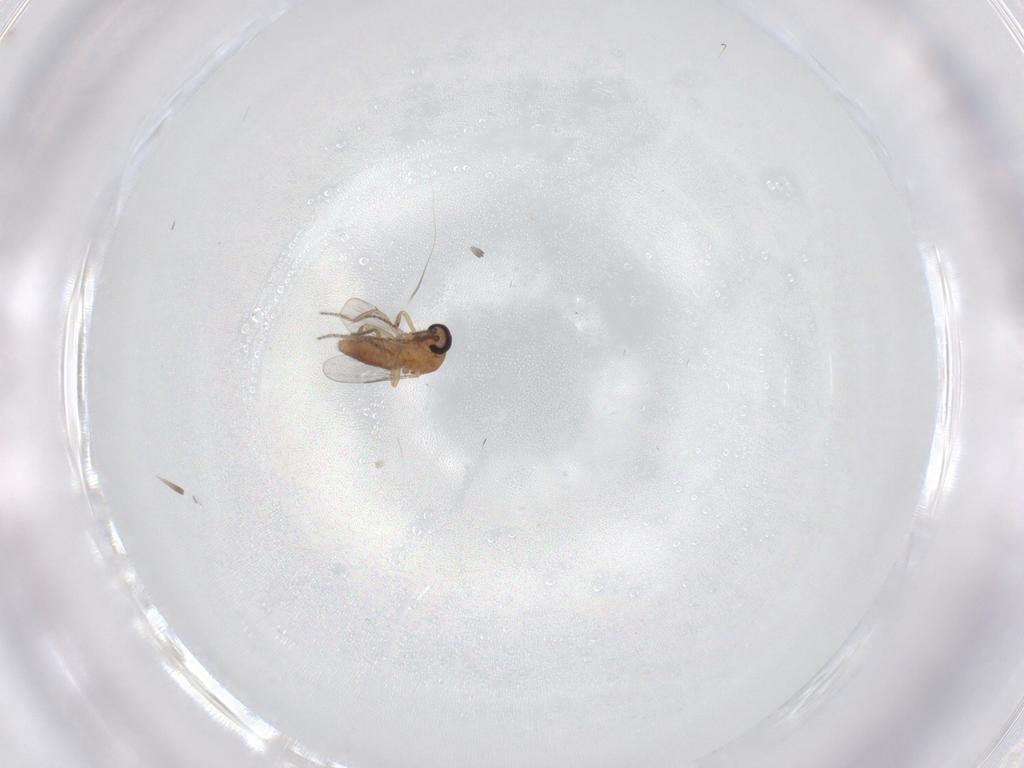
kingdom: Animalia
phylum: Arthropoda
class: Insecta
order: Diptera
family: Ceratopogonidae
